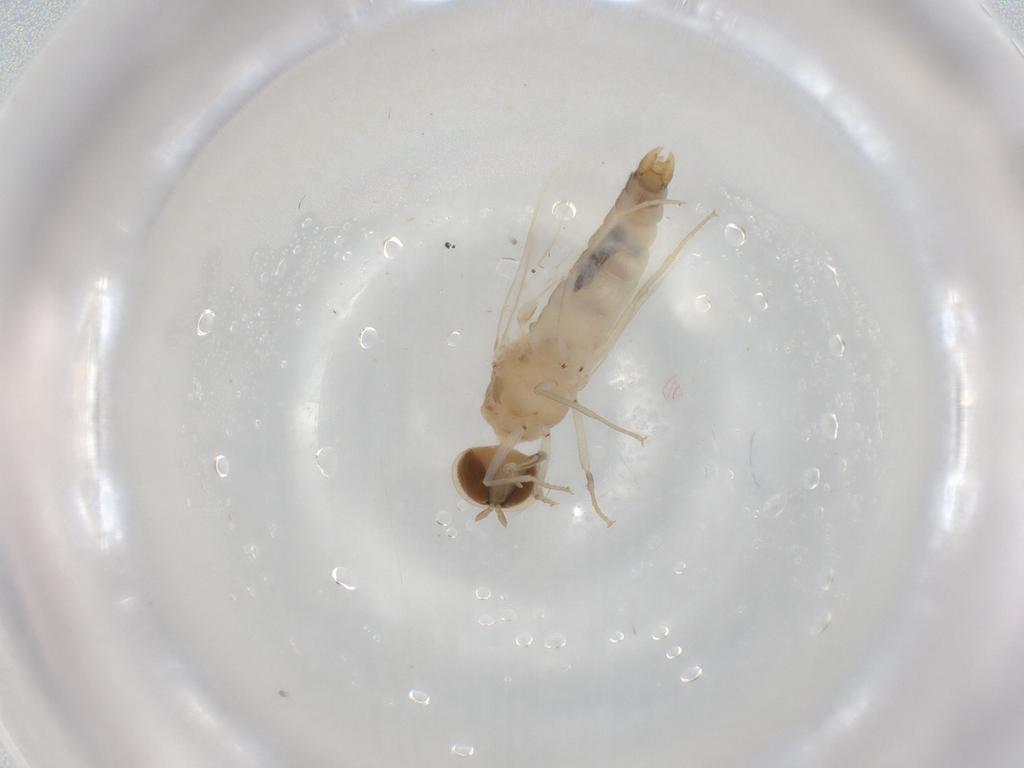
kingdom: Animalia
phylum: Arthropoda
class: Insecta
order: Diptera
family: Scenopinidae
